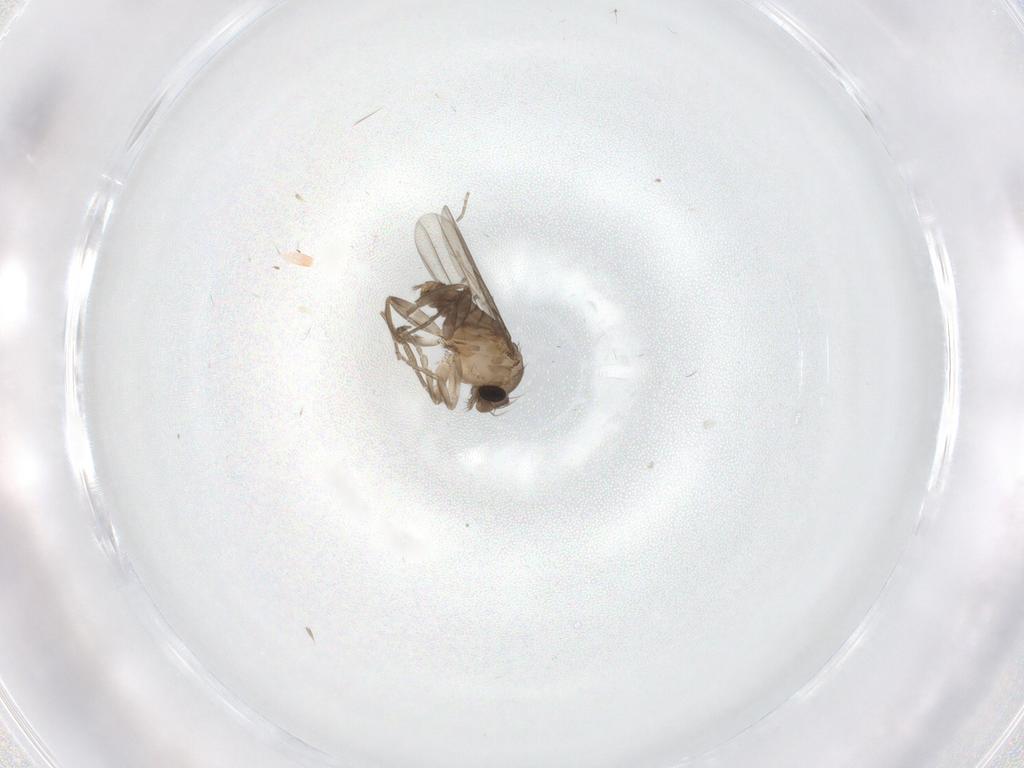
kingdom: Animalia
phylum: Arthropoda
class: Insecta
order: Diptera
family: Phoridae
